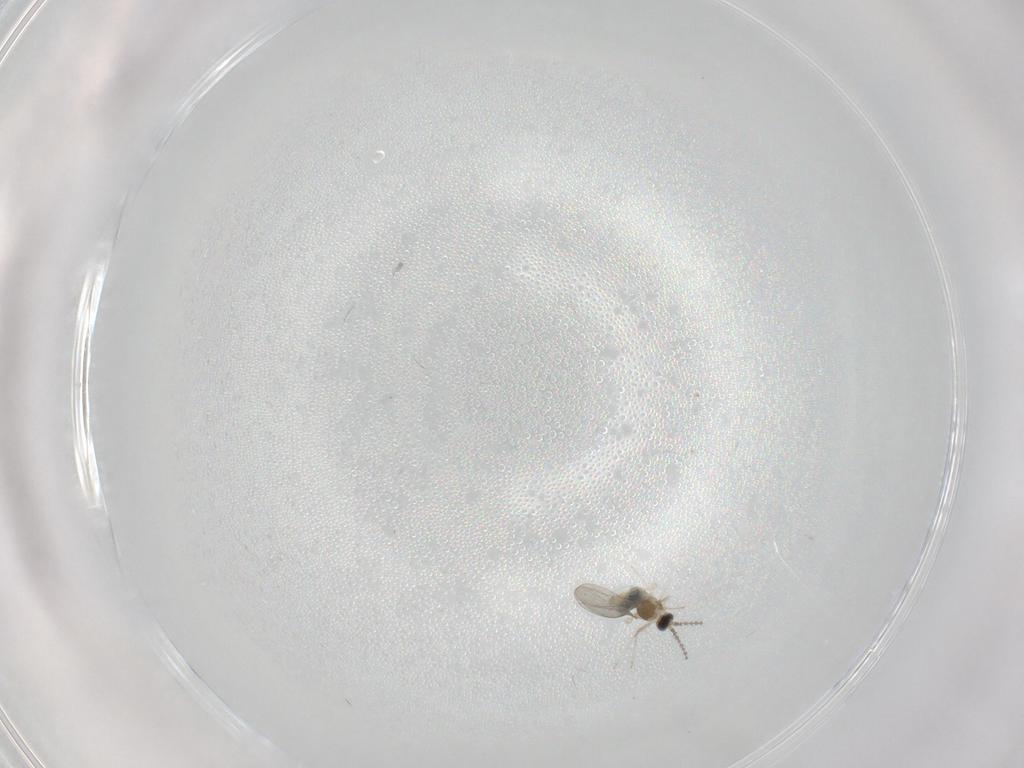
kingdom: Animalia
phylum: Arthropoda
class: Insecta
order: Diptera
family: Cecidomyiidae
